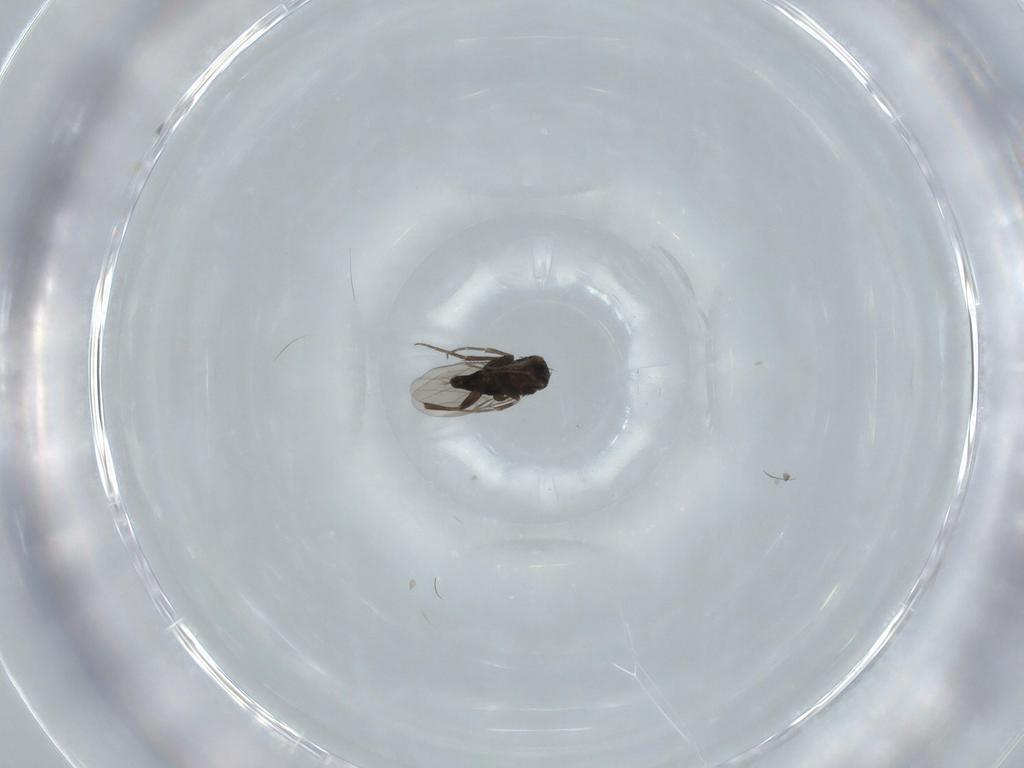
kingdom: Animalia
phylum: Arthropoda
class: Insecta
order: Diptera
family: Phoridae
